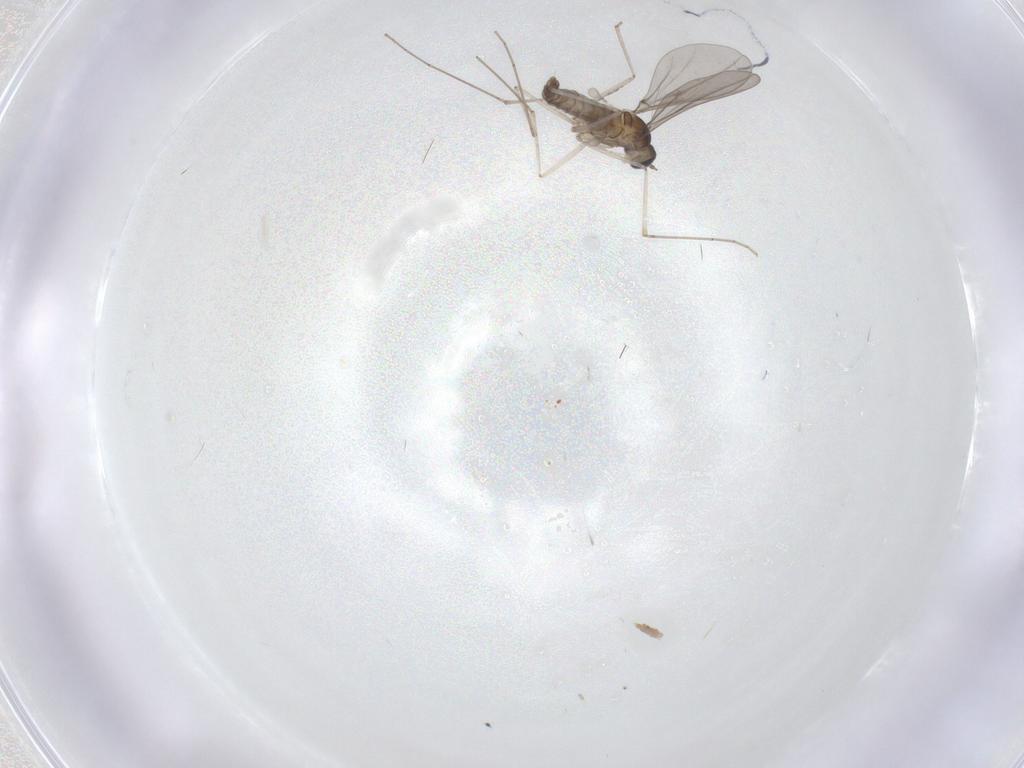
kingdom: Animalia
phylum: Arthropoda
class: Insecta
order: Diptera
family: Cecidomyiidae
